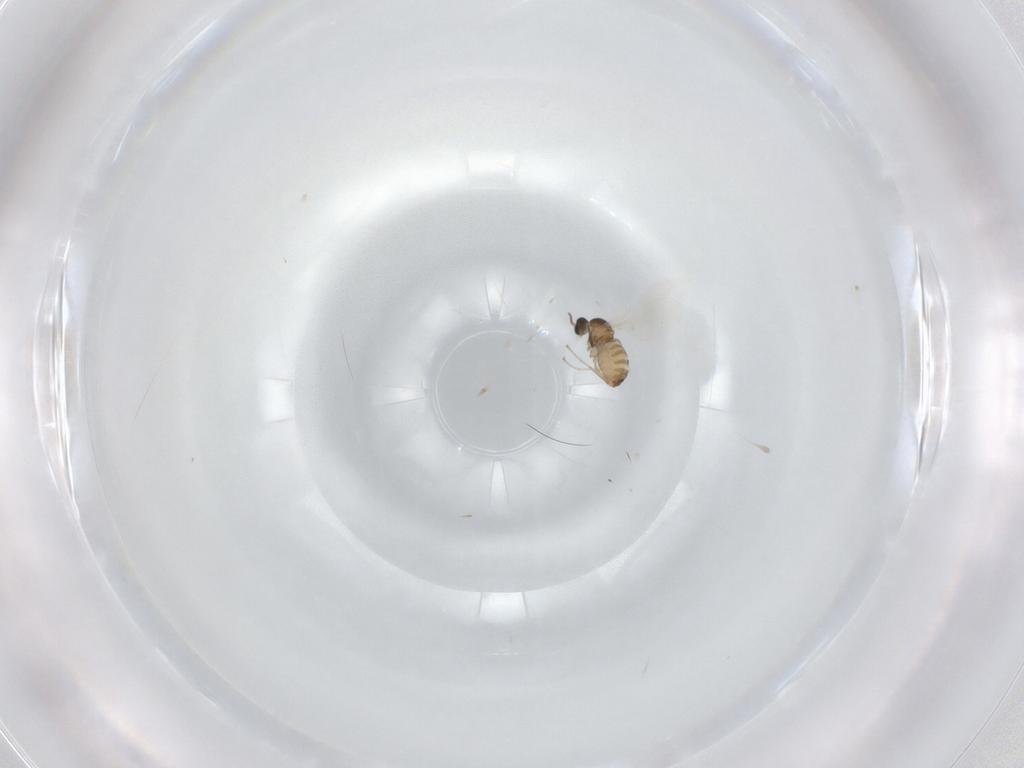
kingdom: Animalia
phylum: Arthropoda
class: Insecta
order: Diptera
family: Cecidomyiidae
